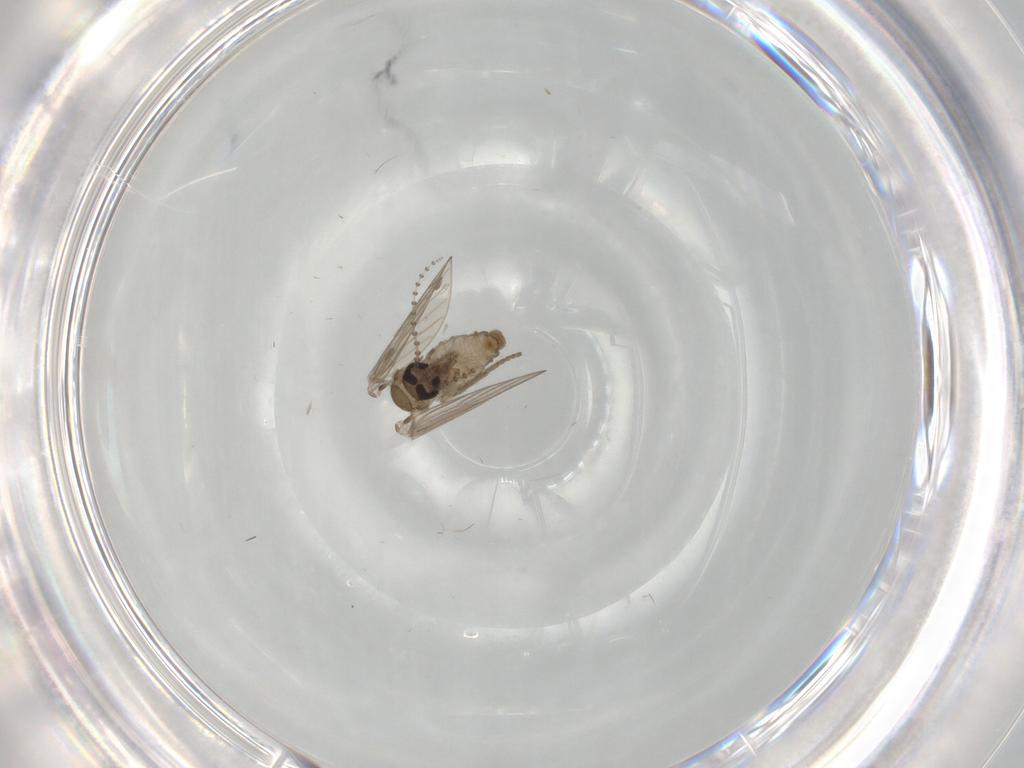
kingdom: Animalia
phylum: Arthropoda
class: Insecta
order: Diptera
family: Psychodidae
